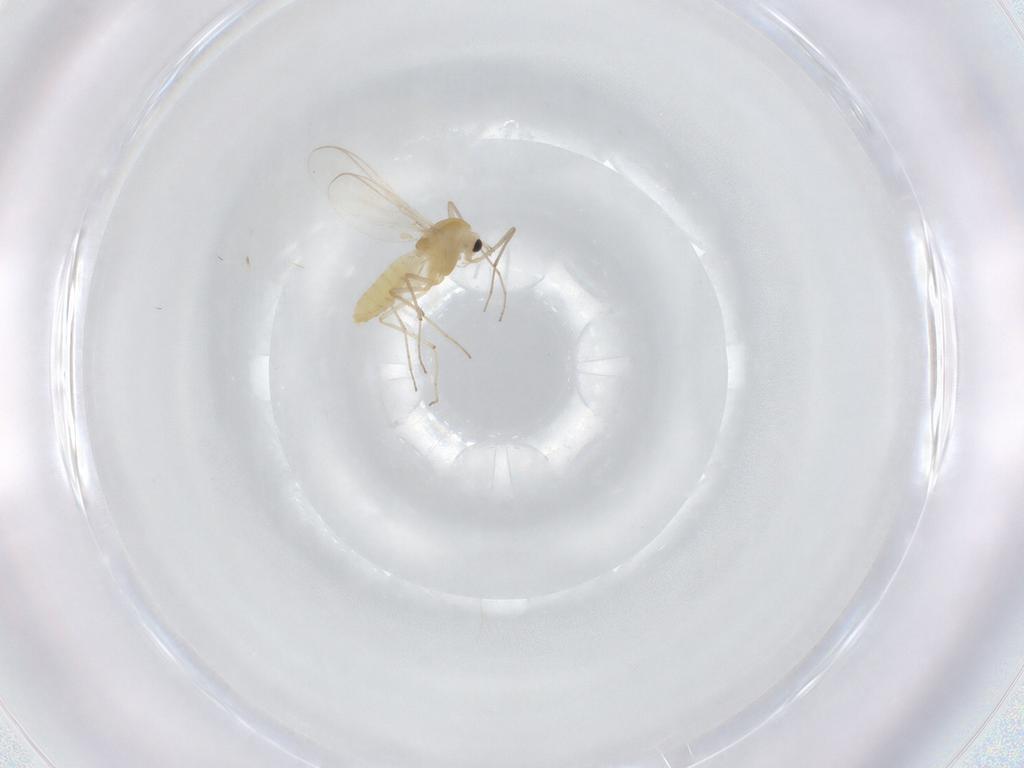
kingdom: Animalia
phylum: Arthropoda
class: Insecta
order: Diptera
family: Chironomidae
